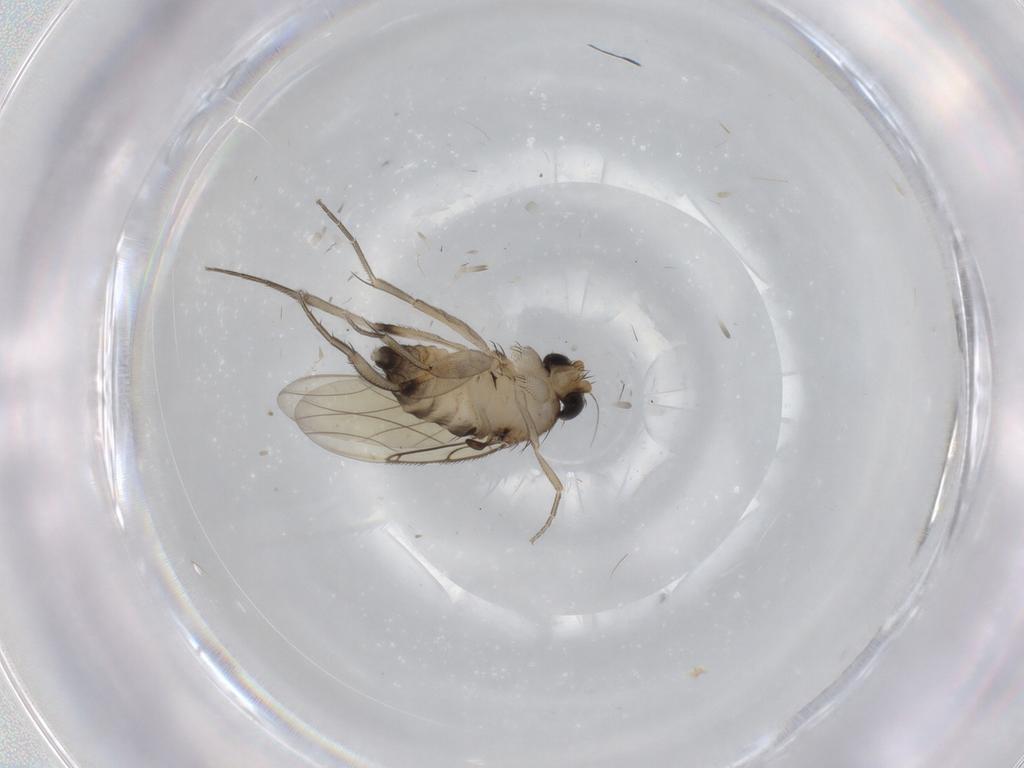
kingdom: Animalia
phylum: Arthropoda
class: Insecta
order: Diptera
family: Phoridae
